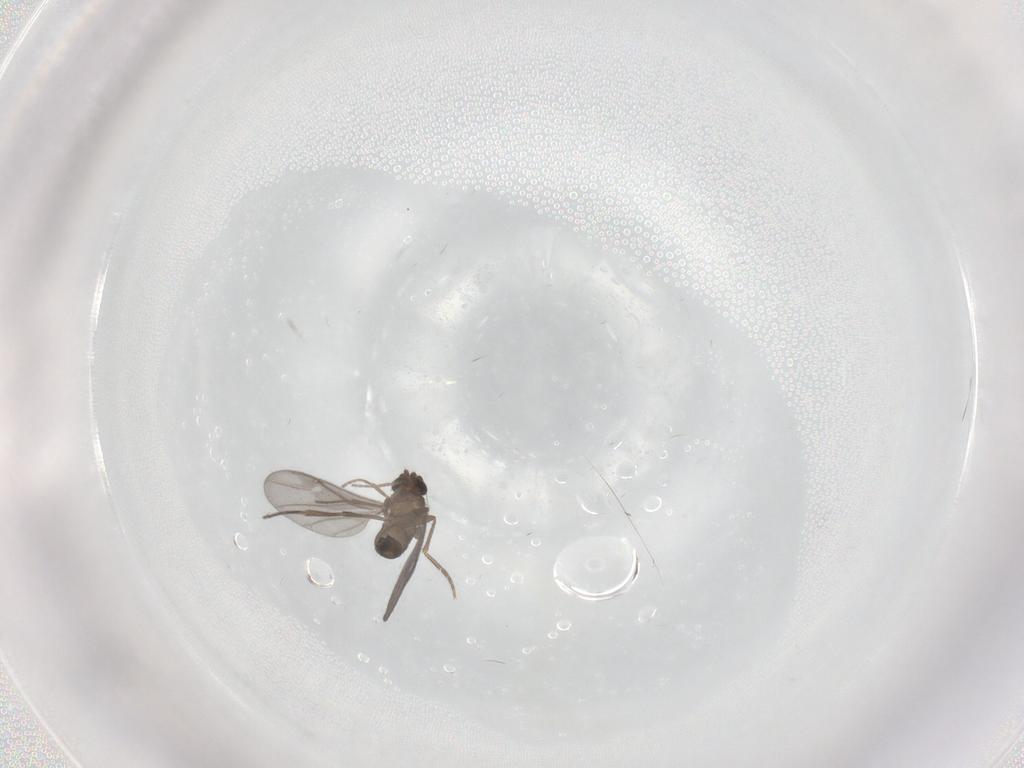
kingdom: Animalia
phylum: Arthropoda
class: Insecta
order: Diptera
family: Phoridae
